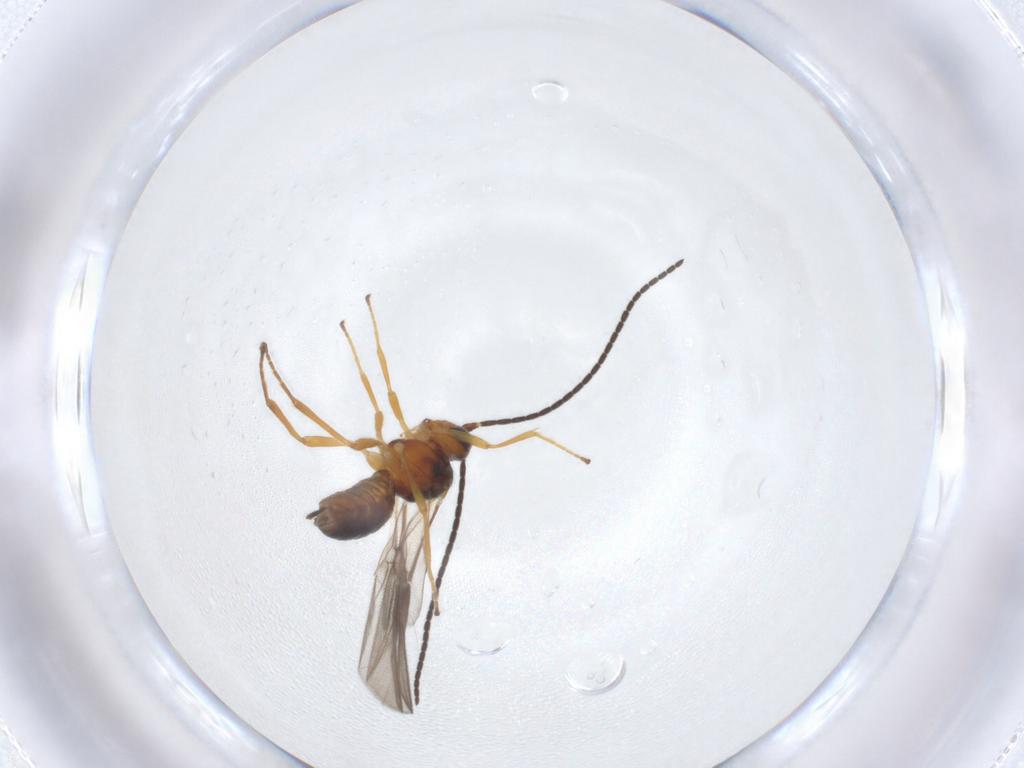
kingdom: Animalia
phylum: Arthropoda
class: Insecta
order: Hymenoptera
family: Braconidae
